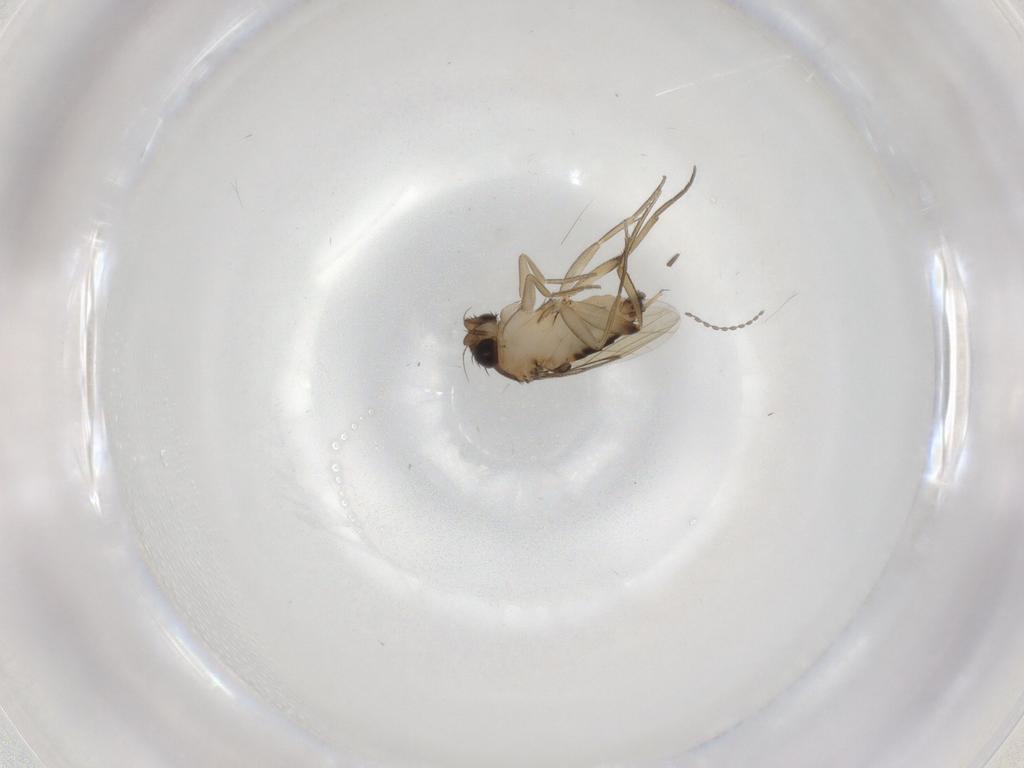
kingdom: Animalia
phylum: Arthropoda
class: Insecta
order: Diptera
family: Phoridae
